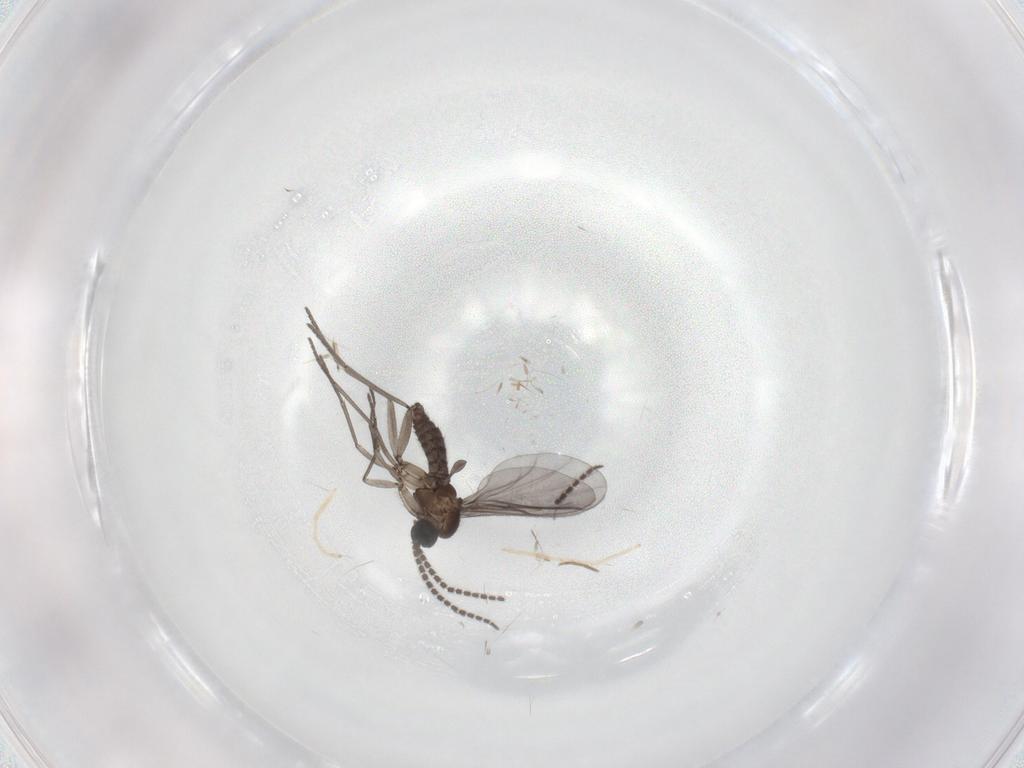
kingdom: Animalia
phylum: Arthropoda
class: Insecta
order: Diptera
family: Chironomidae
